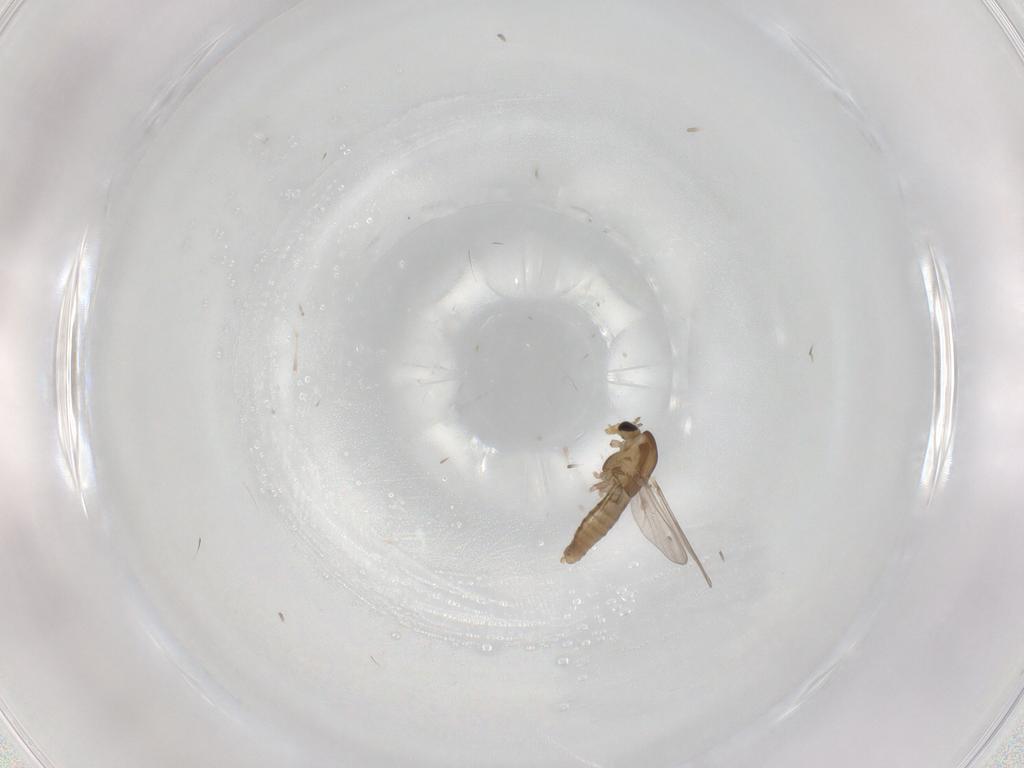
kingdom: Animalia
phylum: Arthropoda
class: Insecta
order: Diptera
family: Chironomidae
